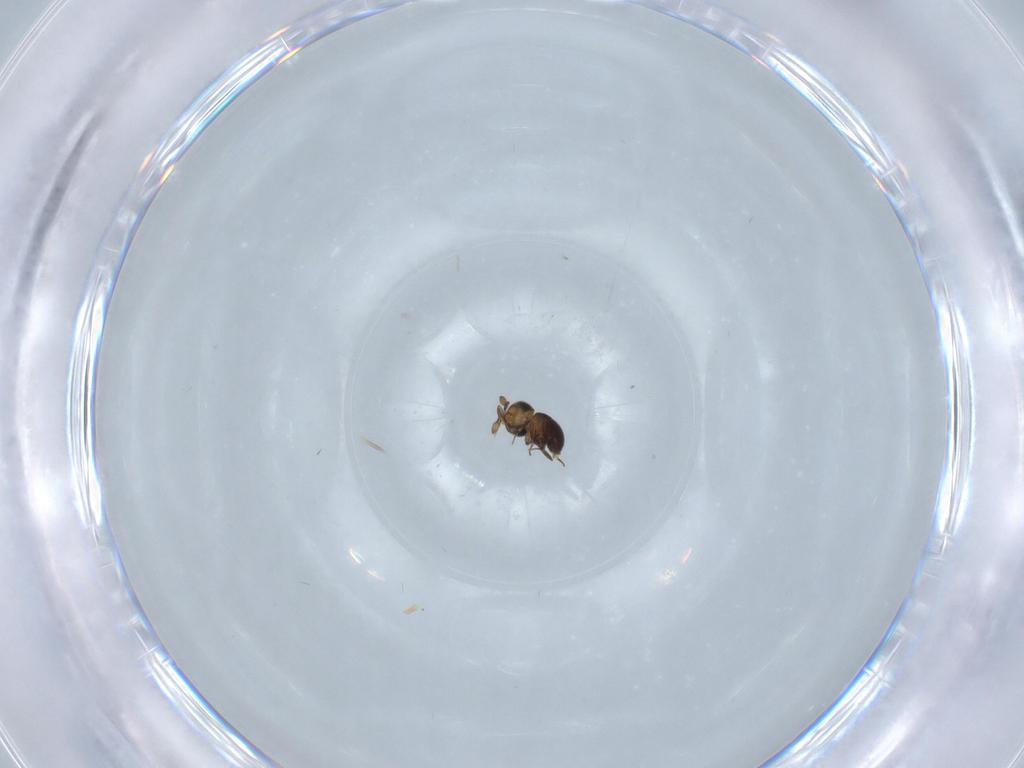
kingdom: Animalia
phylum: Arthropoda
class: Insecta
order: Hymenoptera
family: Scelionidae
